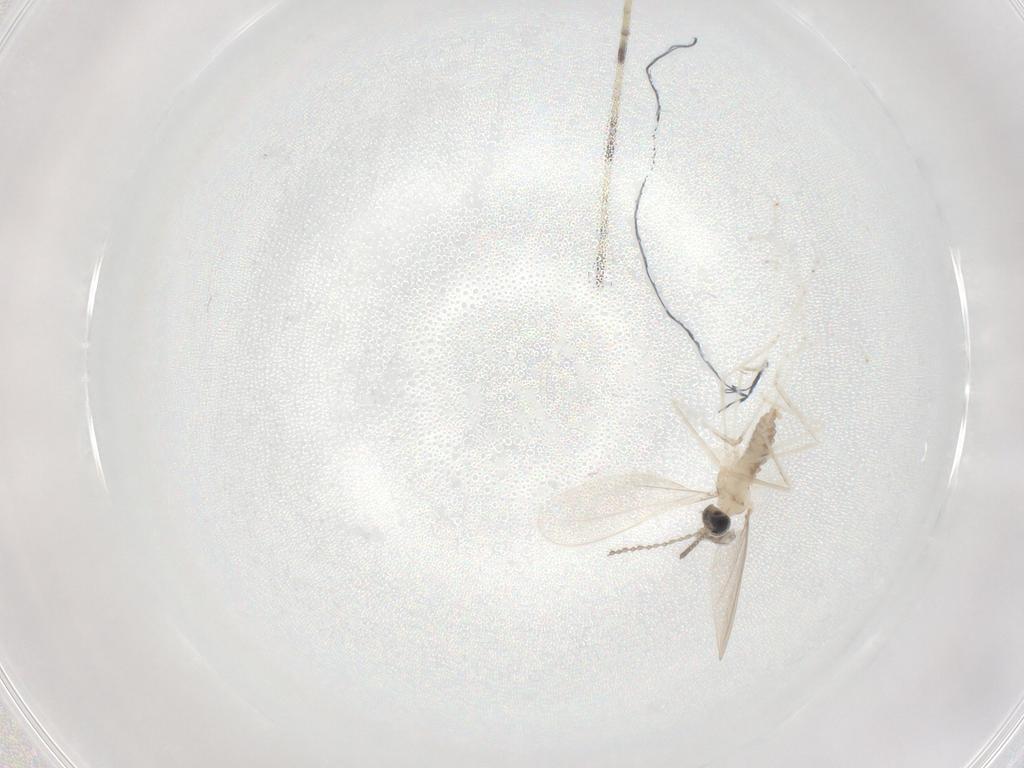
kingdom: Animalia
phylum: Arthropoda
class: Insecta
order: Diptera
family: Cecidomyiidae
